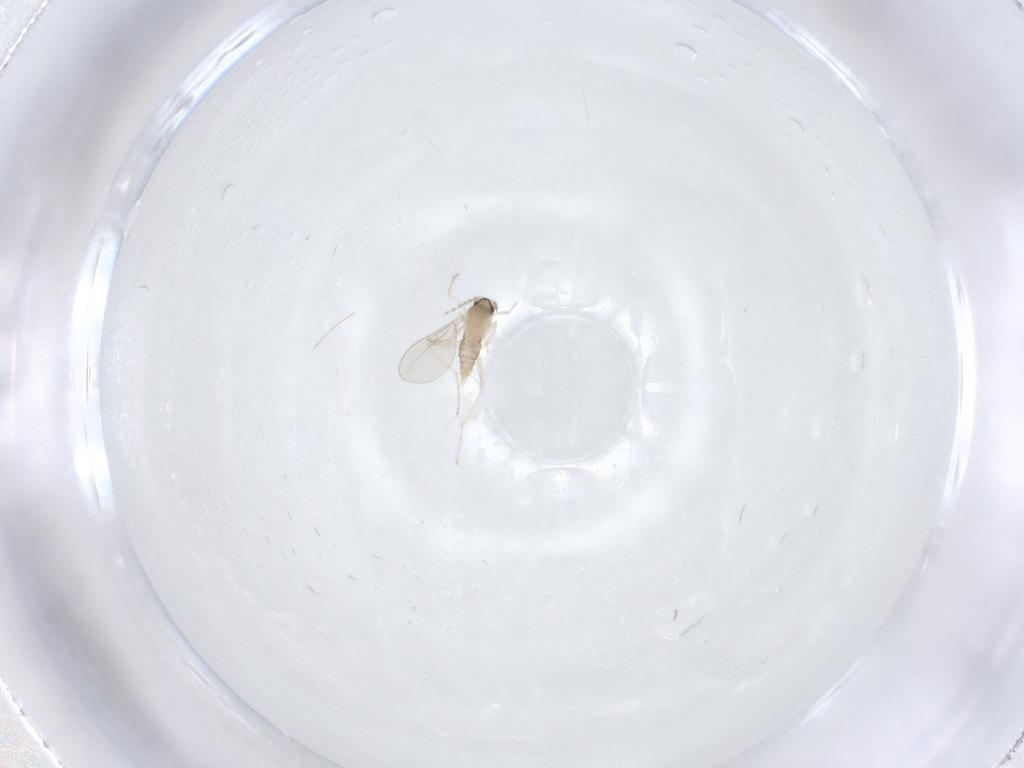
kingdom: Animalia
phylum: Arthropoda
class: Insecta
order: Diptera
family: Cecidomyiidae
